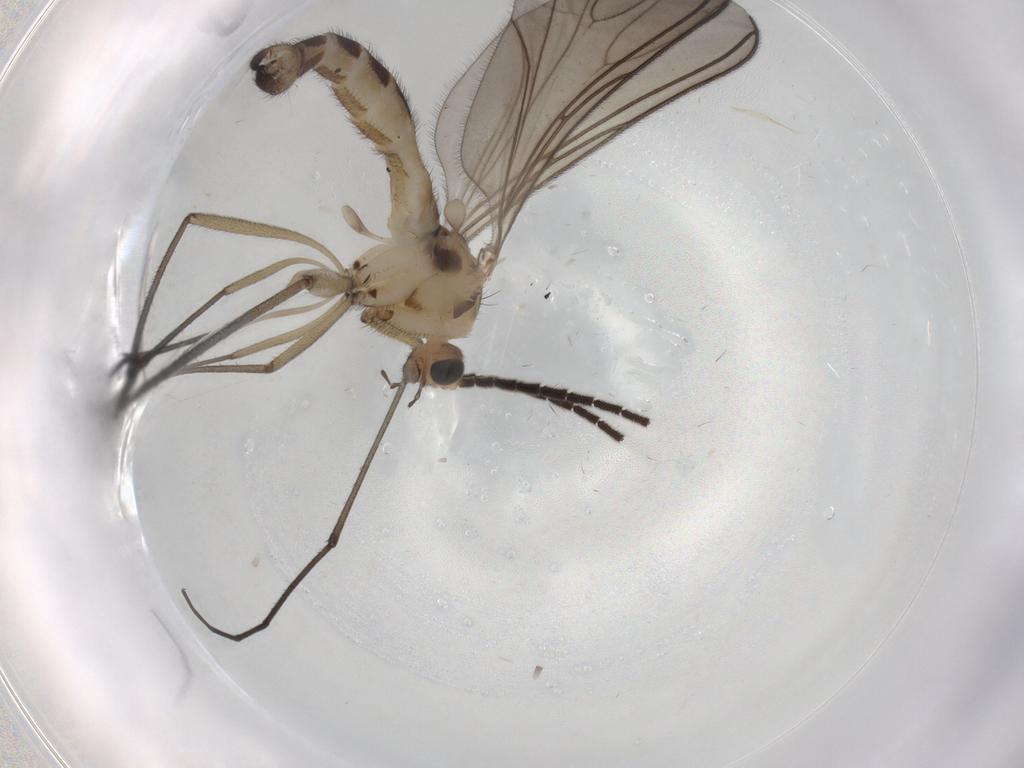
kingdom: Animalia
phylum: Arthropoda
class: Insecta
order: Diptera
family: Sciaridae
